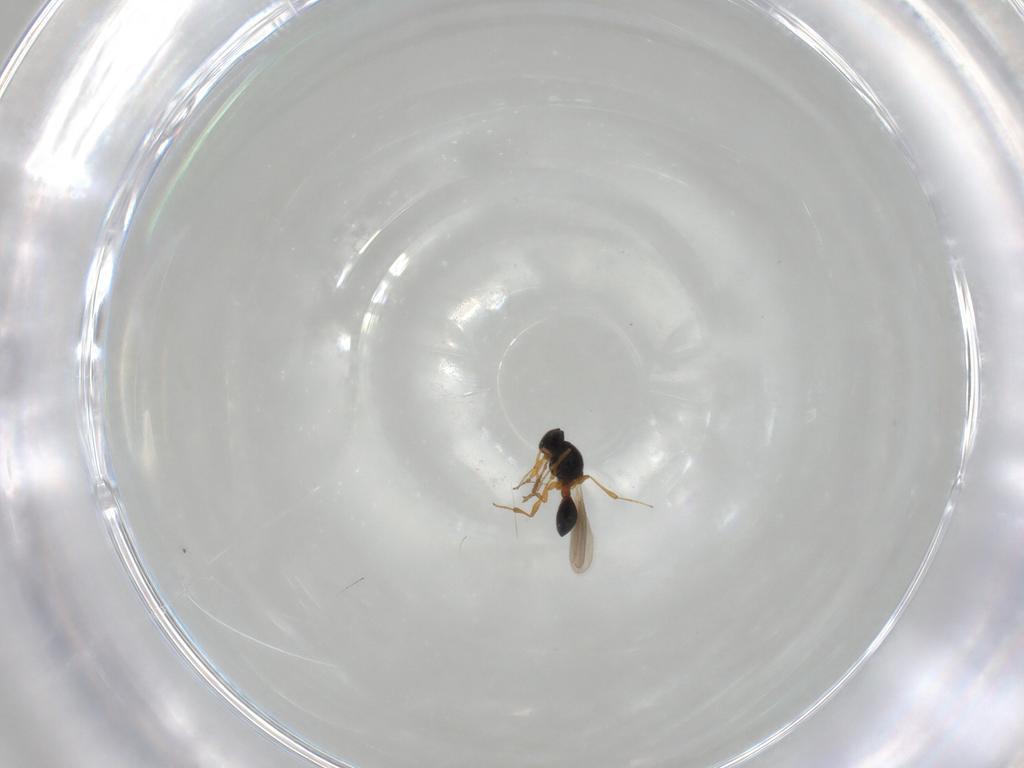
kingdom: Animalia
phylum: Arthropoda
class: Insecta
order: Hymenoptera
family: Platygastridae
